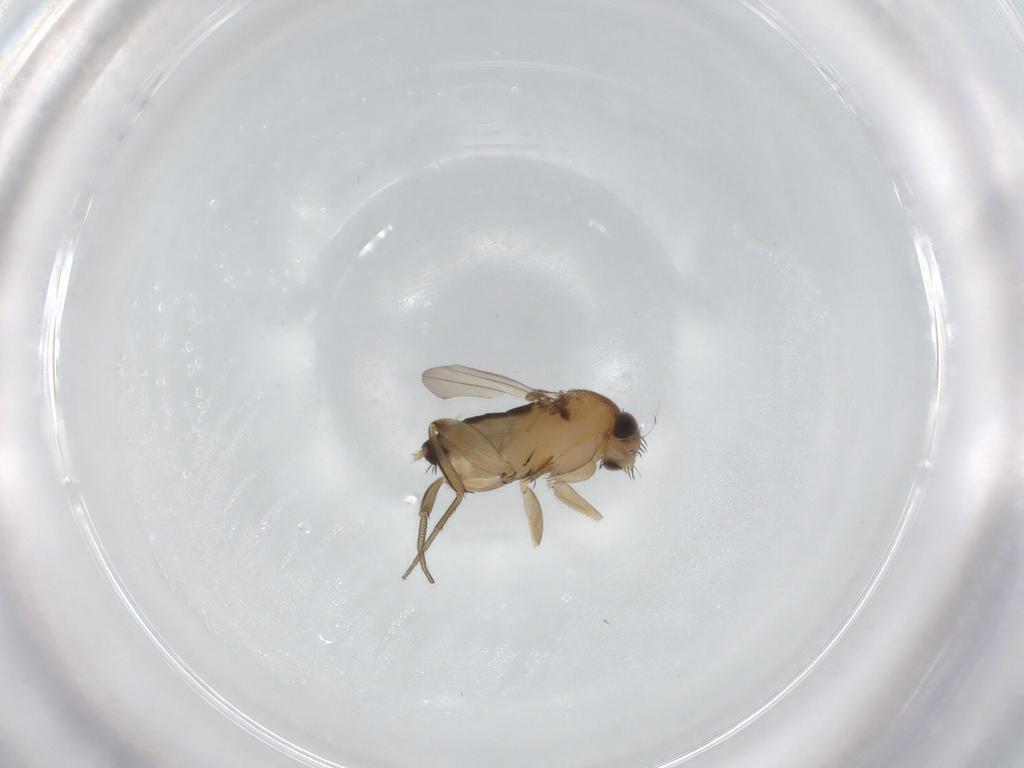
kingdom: Animalia
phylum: Arthropoda
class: Insecta
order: Diptera
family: Phoridae
